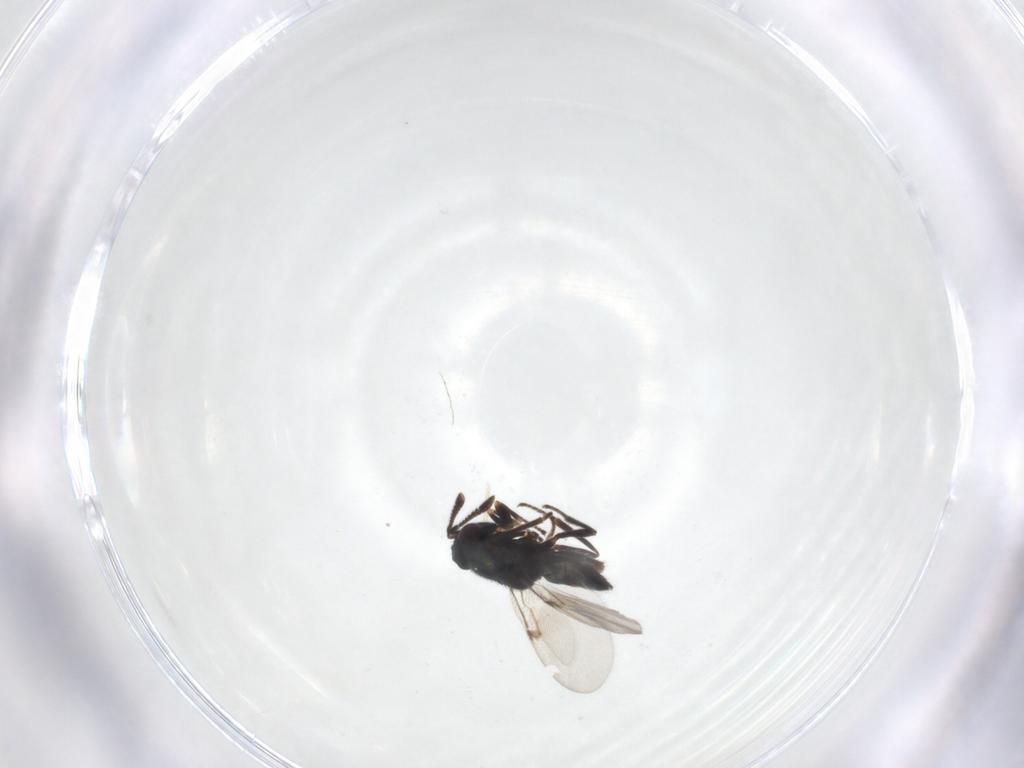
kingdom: Animalia
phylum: Arthropoda
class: Insecta
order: Hymenoptera
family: Encyrtidae
